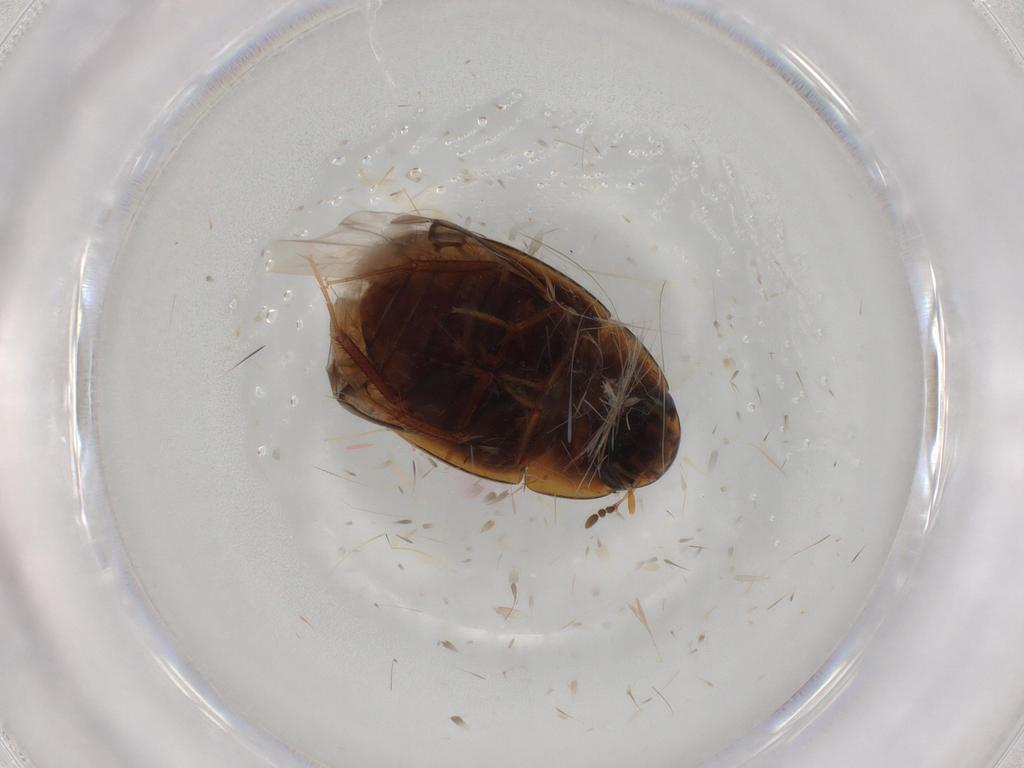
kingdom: Animalia
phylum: Arthropoda
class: Insecta
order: Coleoptera
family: Hydrophilidae
